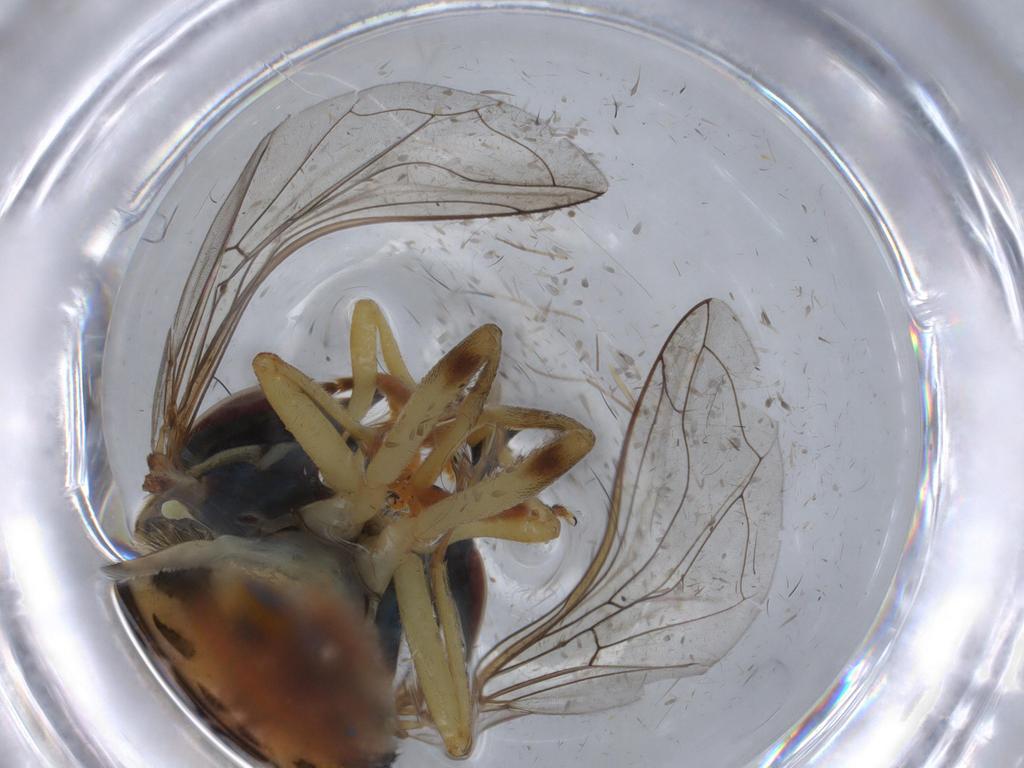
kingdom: Animalia
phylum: Arthropoda
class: Insecta
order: Diptera
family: Syrphidae
